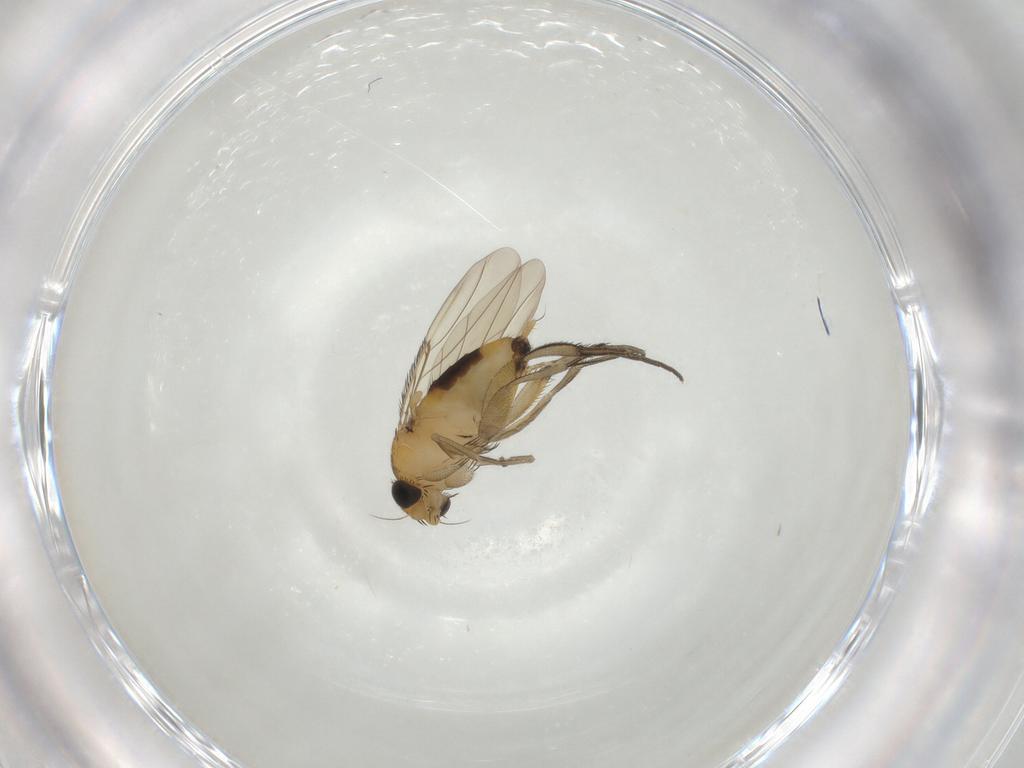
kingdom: Animalia
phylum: Arthropoda
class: Insecta
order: Diptera
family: Phoridae
